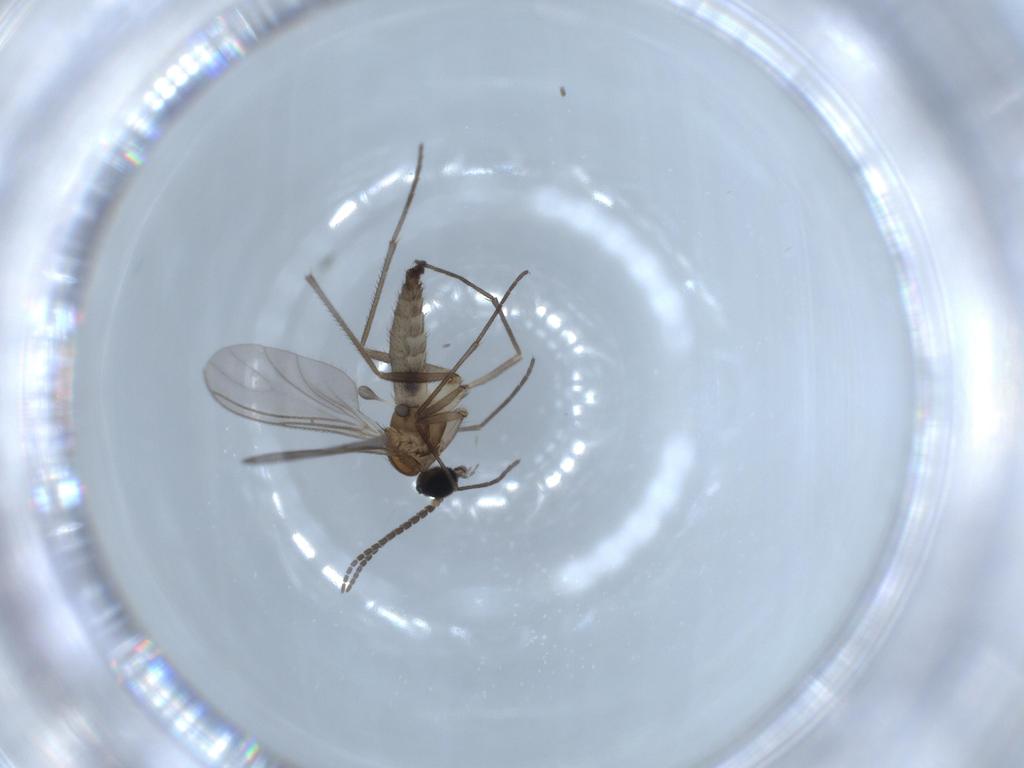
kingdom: Animalia
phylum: Arthropoda
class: Insecta
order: Diptera
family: Sciaridae
